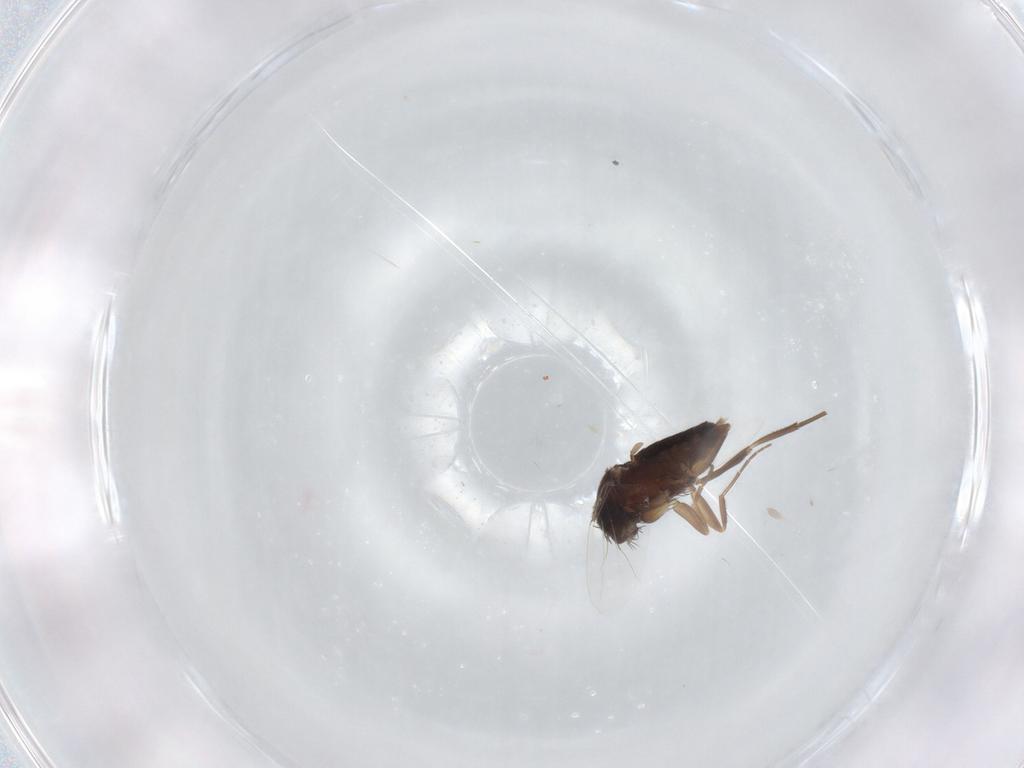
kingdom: Animalia
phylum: Arthropoda
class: Insecta
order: Diptera
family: Phoridae
